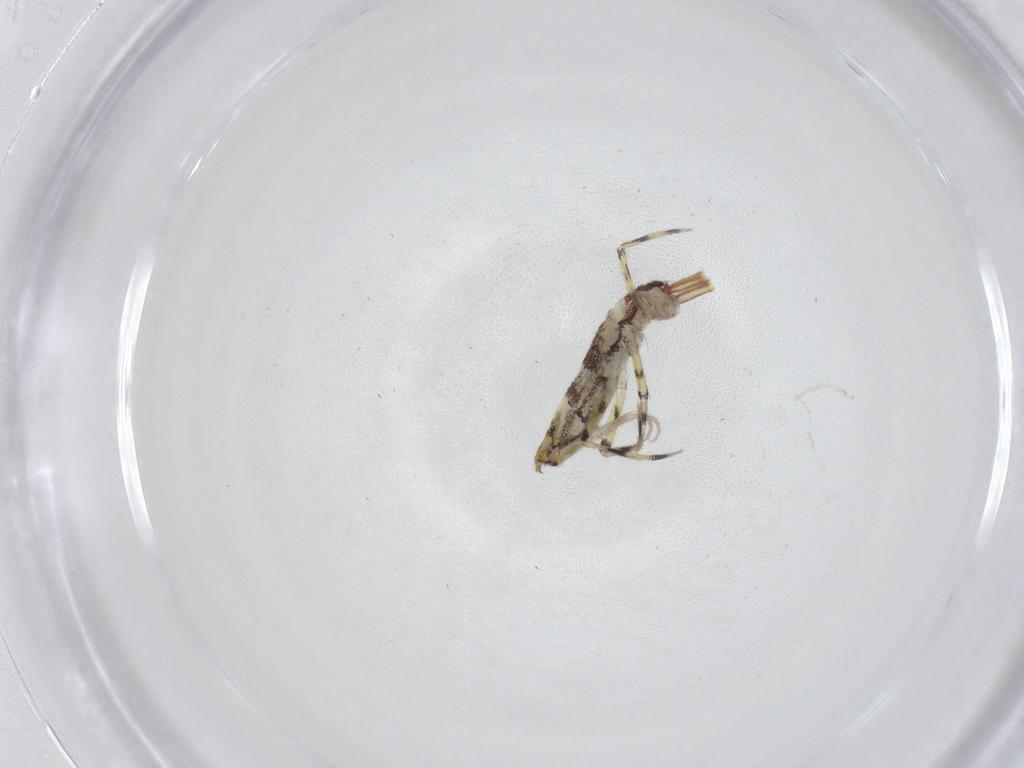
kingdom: Animalia
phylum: Arthropoda
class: Collembola
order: Entomobryomorpha
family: Entomobryidae
